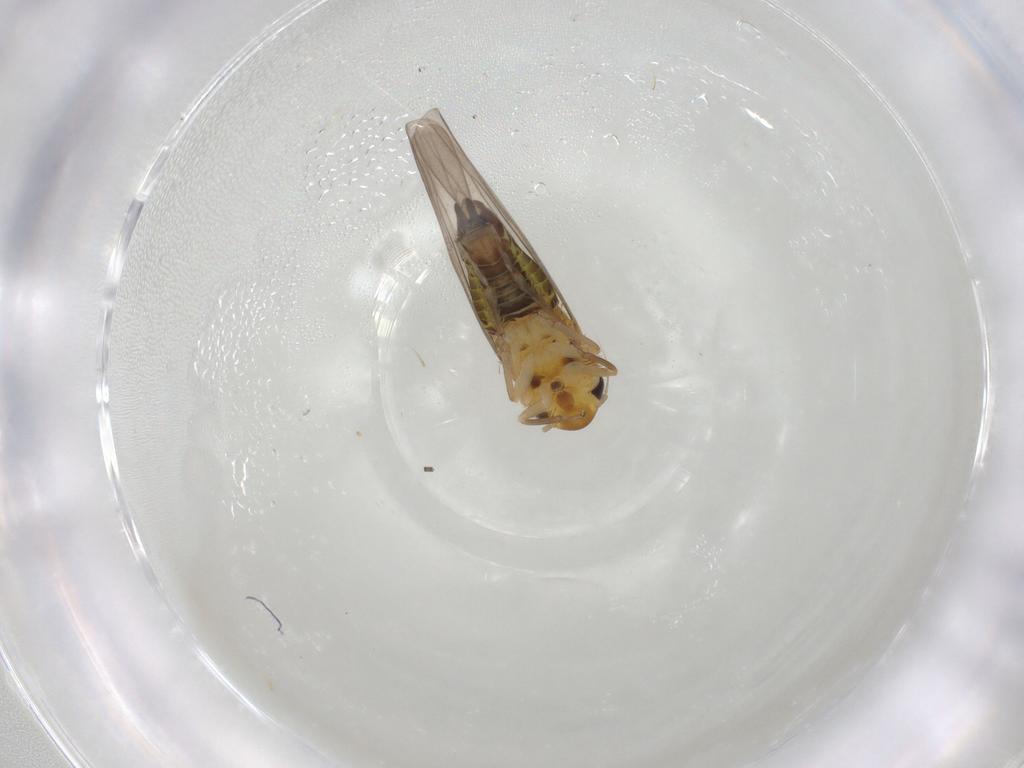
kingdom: Animalia
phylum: Arthropoda
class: Insecta
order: Hemiptera
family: Cicadellidae
